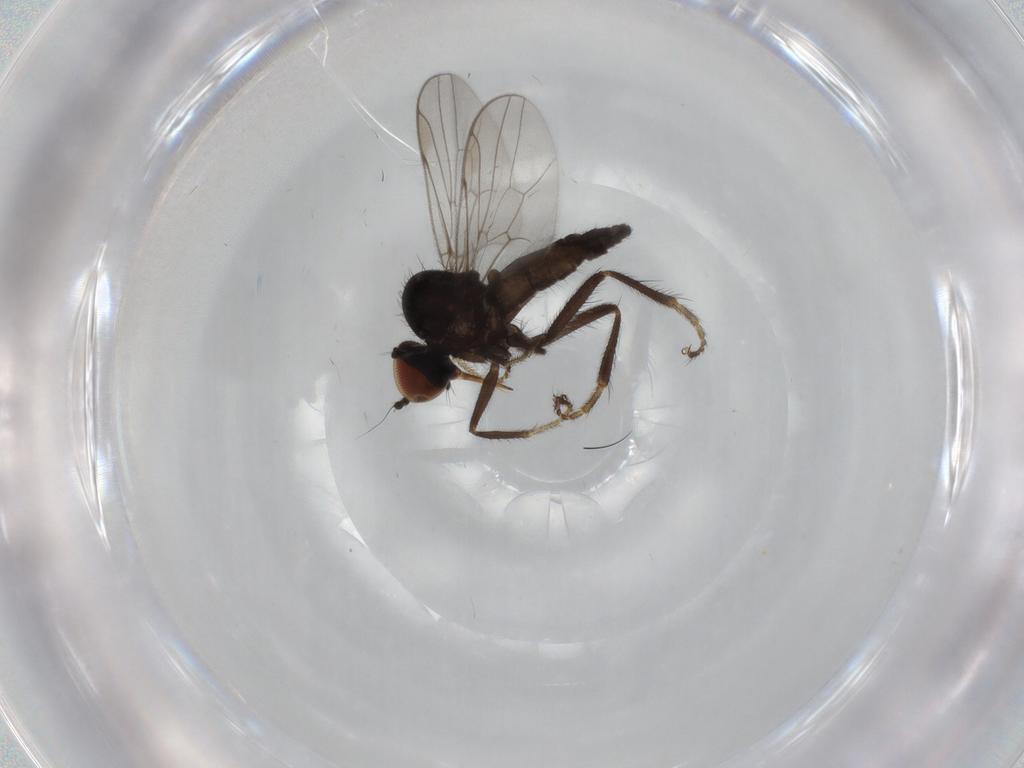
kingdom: Animalia
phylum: Arthropoda
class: Insecta
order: Diptera
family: Hybotidae
